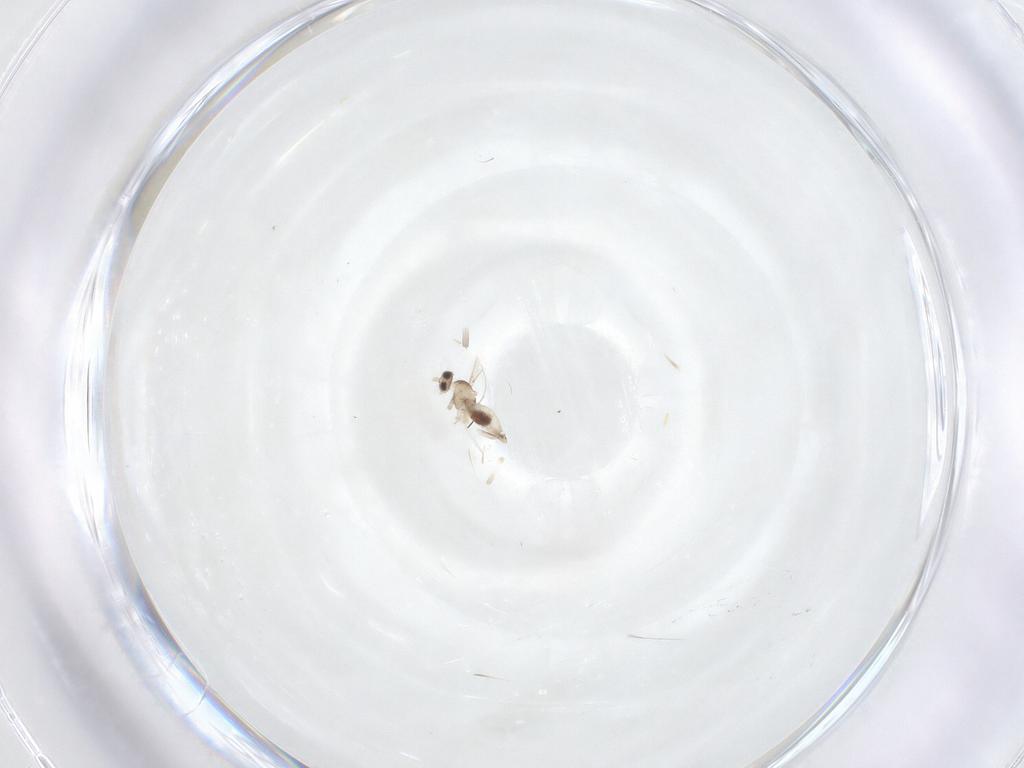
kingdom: Animalia
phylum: Arthropoda
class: Insecta
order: Diptera
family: Cecidomyiidae
